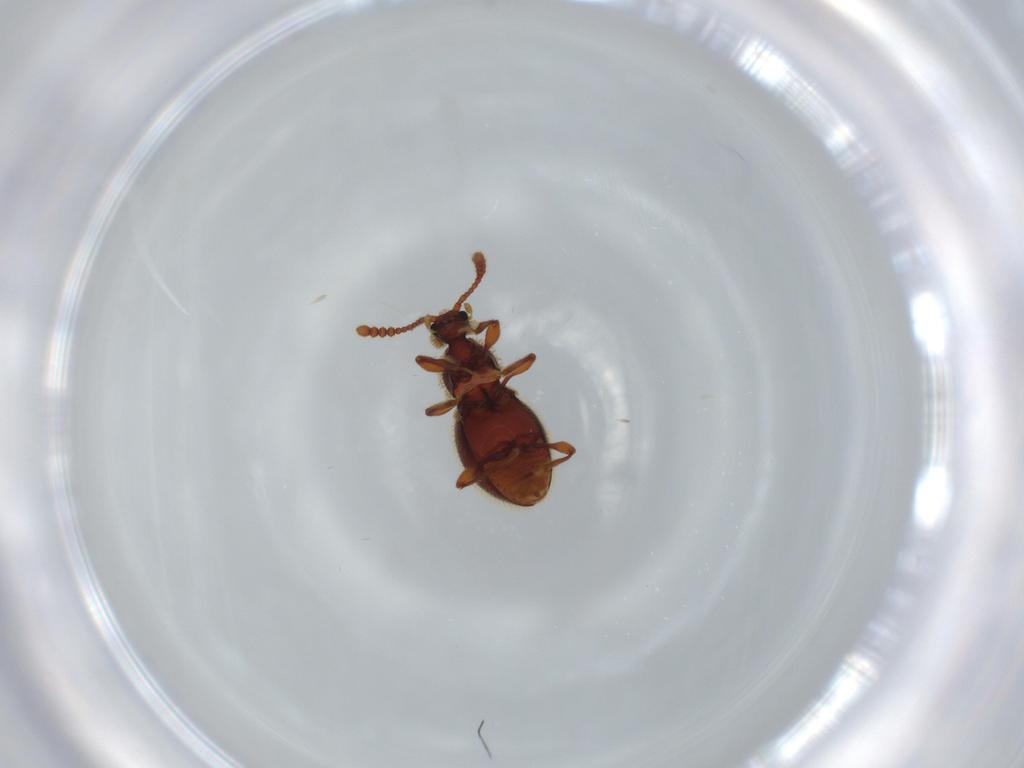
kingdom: Animalia
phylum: Arthropoda
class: Insecta
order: Coleoptera
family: Staphylinidae
